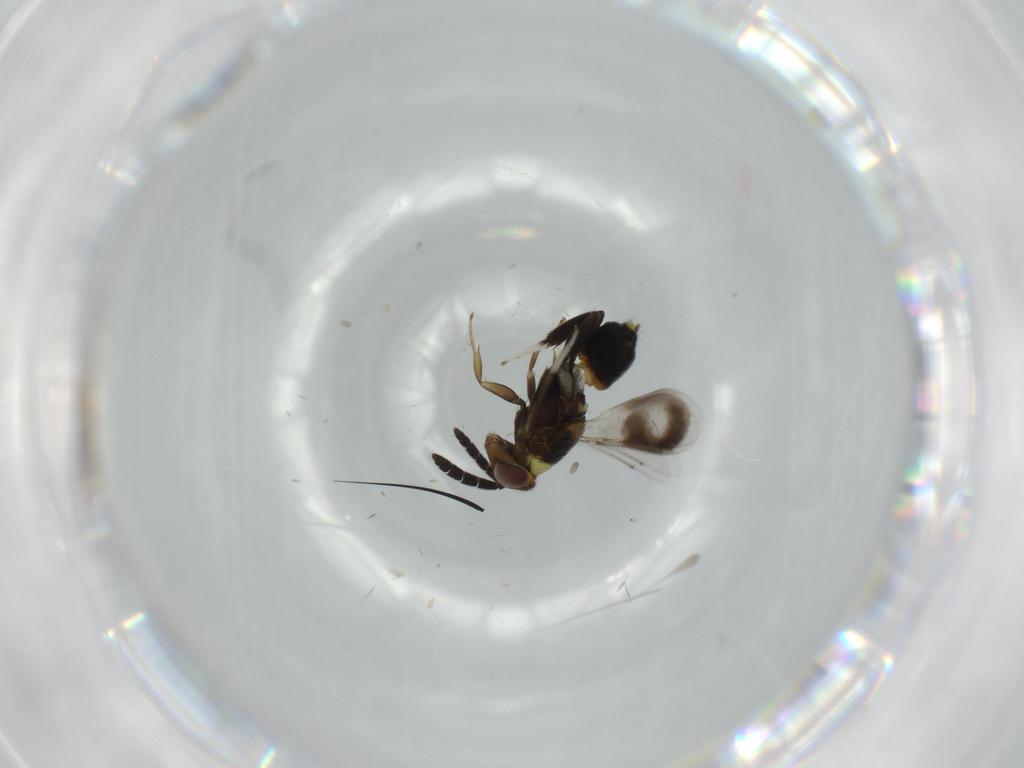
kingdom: Animalia
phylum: Arthropoda
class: Insecta
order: Hymenoptera
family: Aphelinidae
